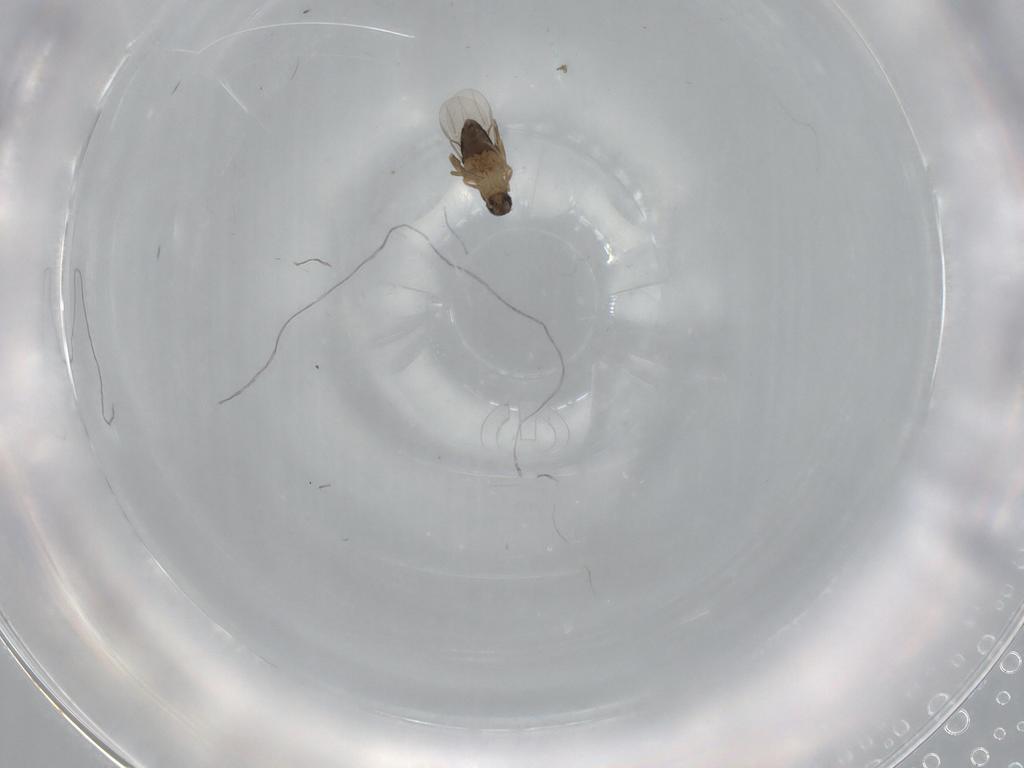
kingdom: Animalia
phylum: Arthropoda
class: Insecta
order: Diptera
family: Phoridae
